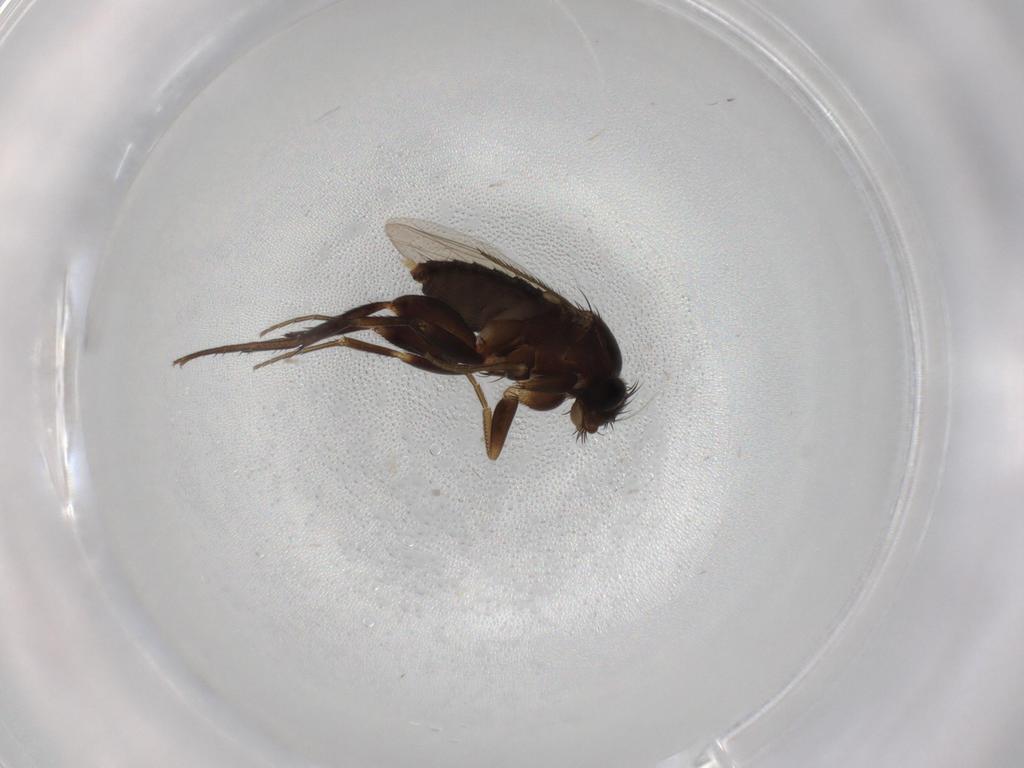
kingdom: Animalia
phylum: Arthropoda
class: Insecta
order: Diptera
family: Phoridae
